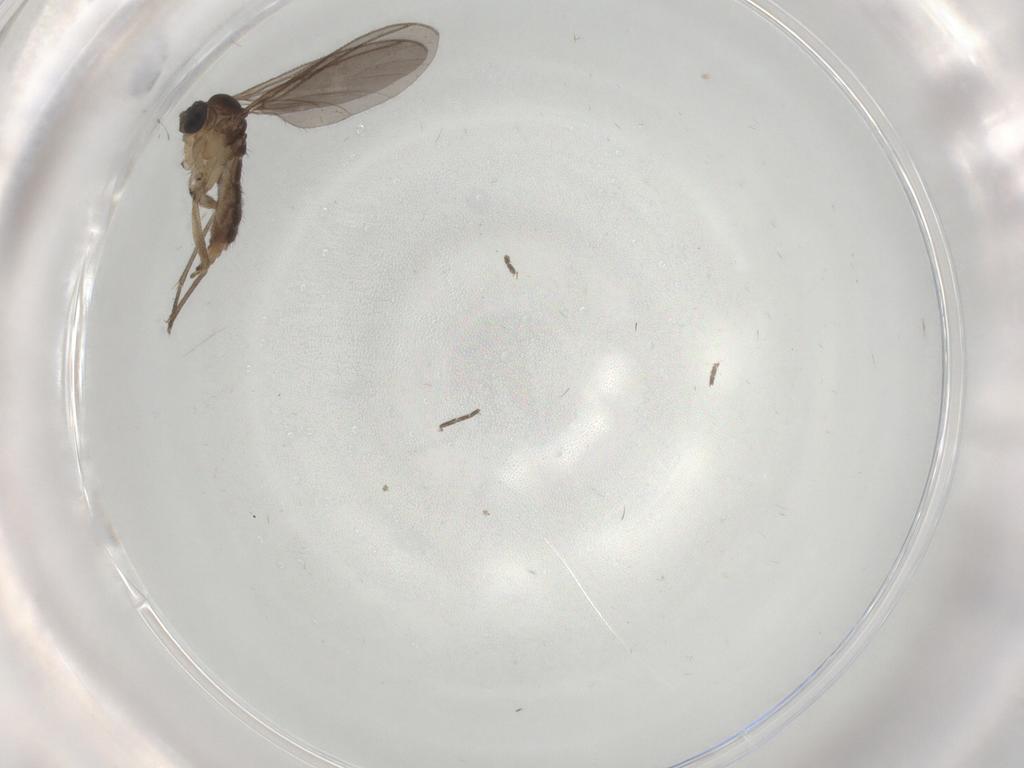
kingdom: Animalia
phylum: Arthropoda
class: Insecta
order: Diptera
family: Sciaridae
